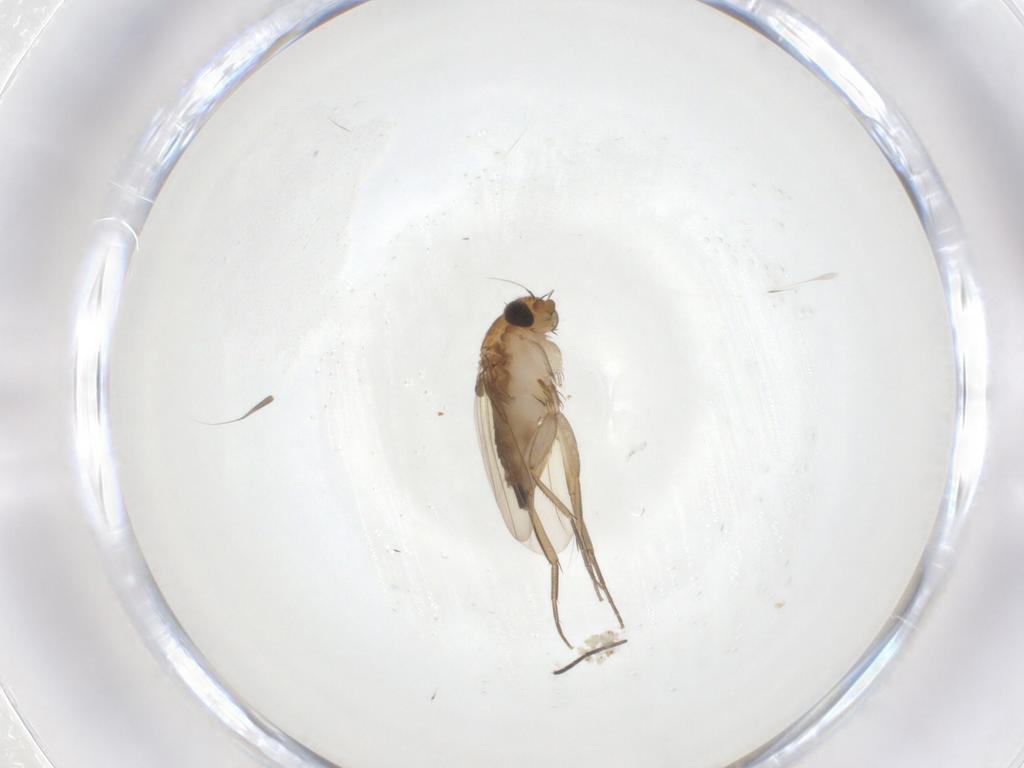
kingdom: Animalia
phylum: Arthropoda
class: Insecta
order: Diptera
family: Phoridae
